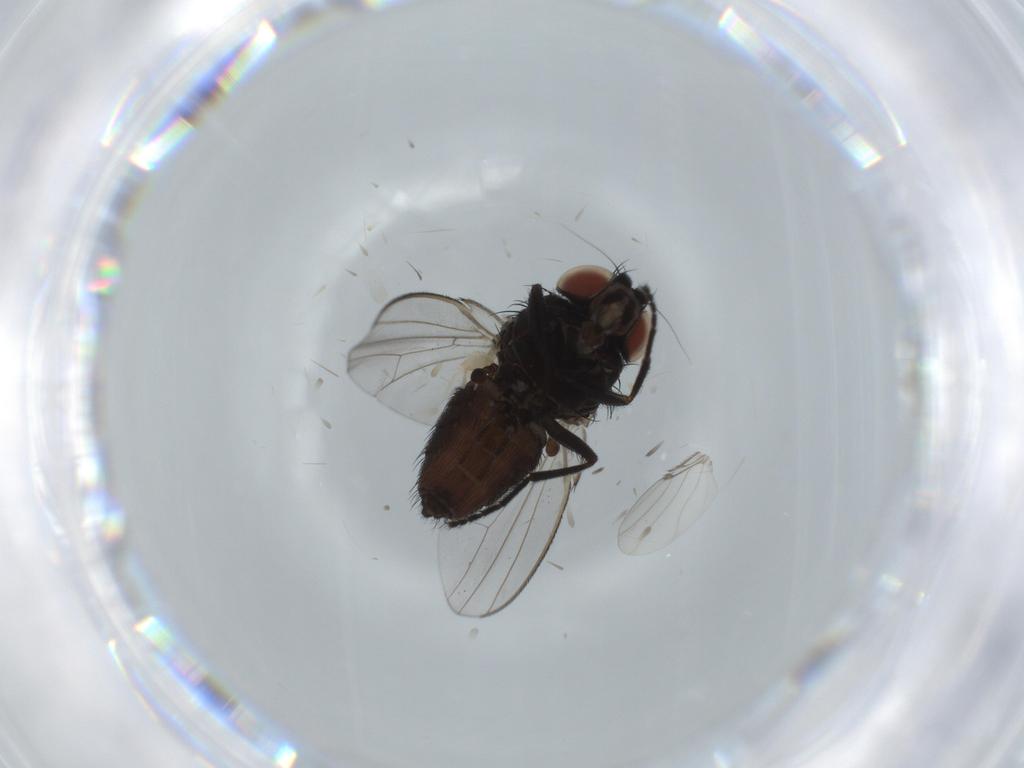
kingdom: Animalia
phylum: Arthropoda
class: Insecta
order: Diptera
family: Milichiidae
